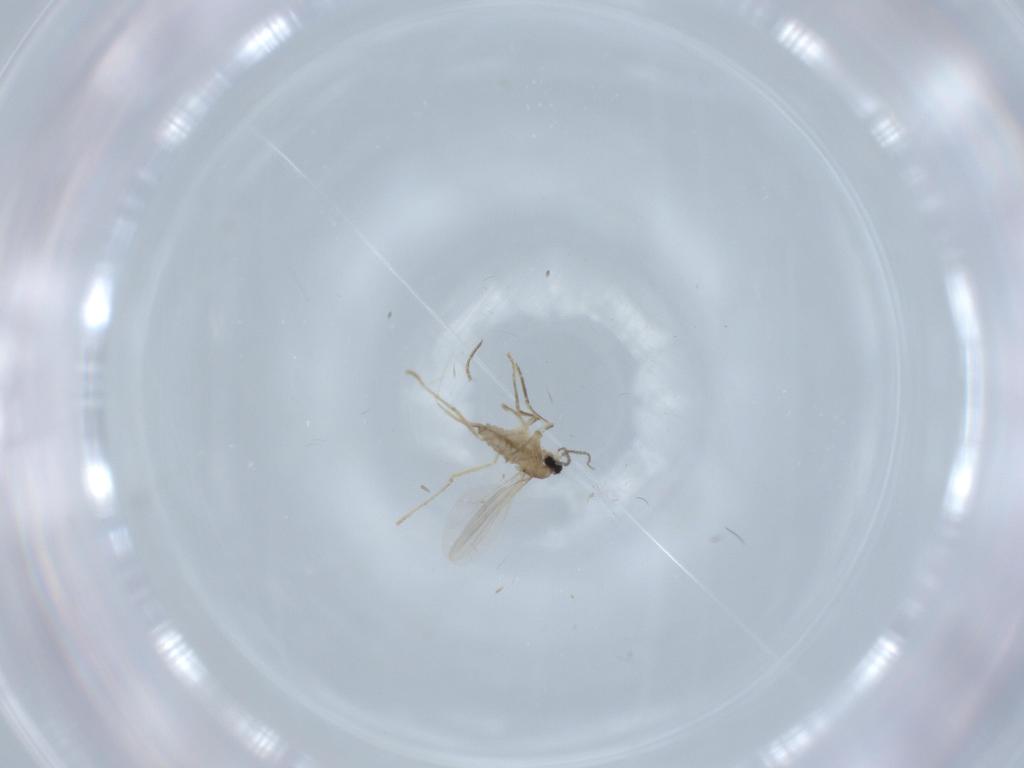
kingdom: Animalia
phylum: Arthropoda
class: Insecta
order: Diptera
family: Cecidomyiidae
